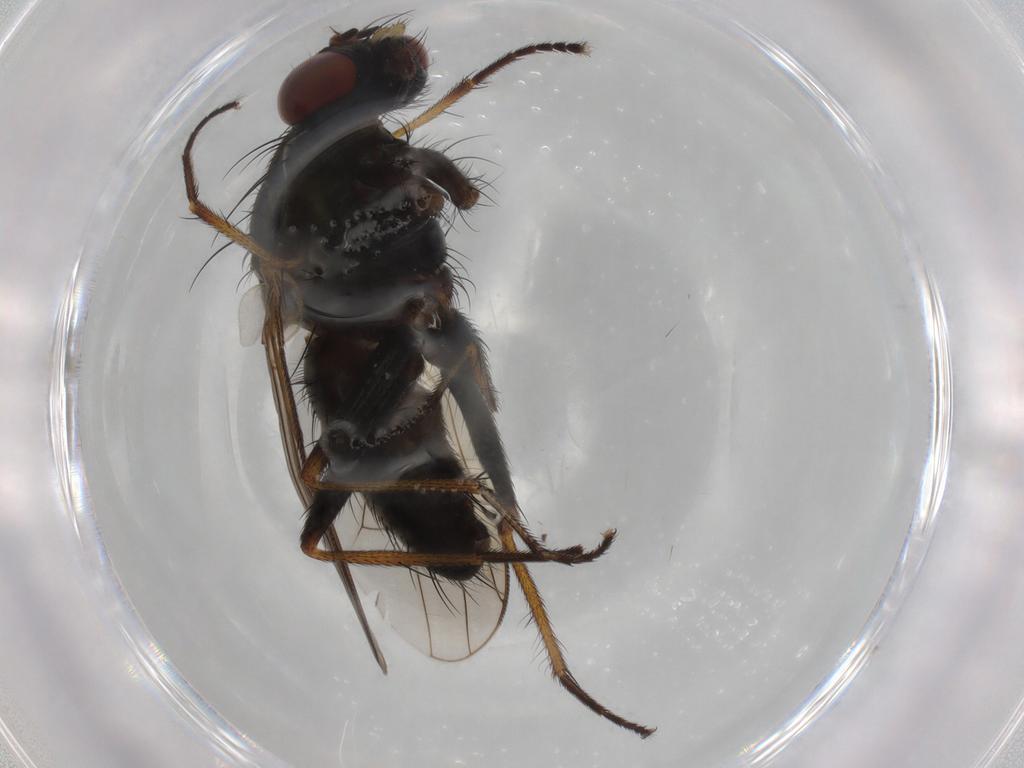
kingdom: Animalia
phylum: Arthropoda
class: Insecta
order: Diptera
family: Muscidae
